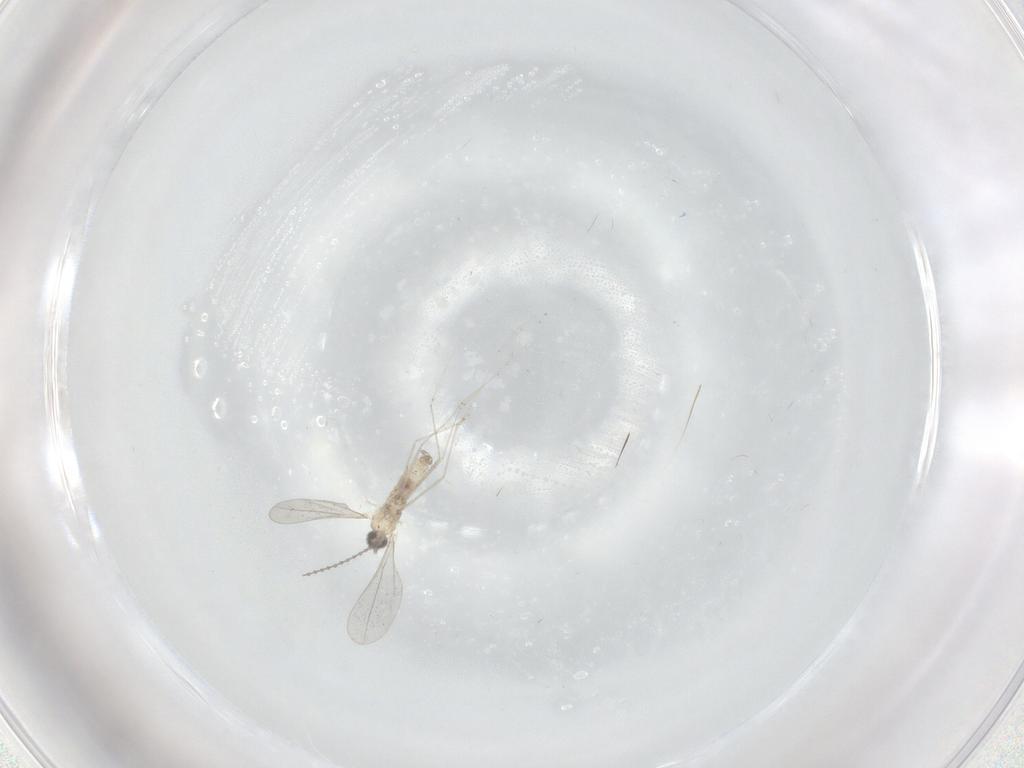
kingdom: Animalia
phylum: Arthropoda
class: Insecta
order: Diptera
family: Cecidomyiidae
